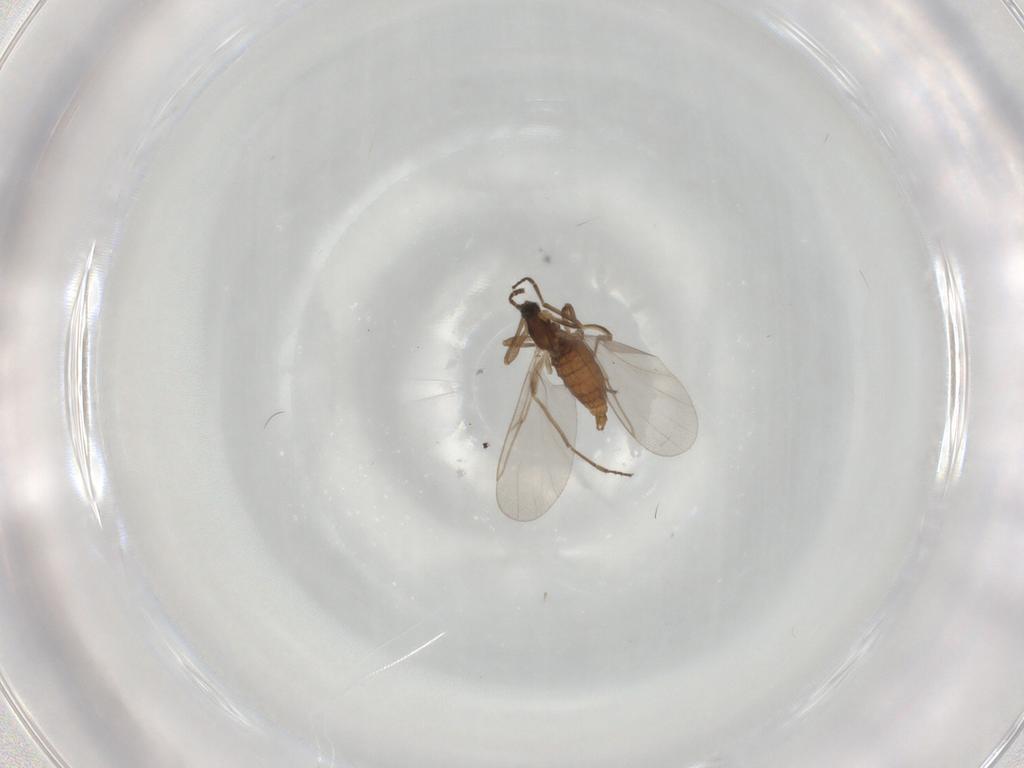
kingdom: Animalia
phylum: Arthropoda
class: Insecta
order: Diptera
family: Cecidomyiidae
